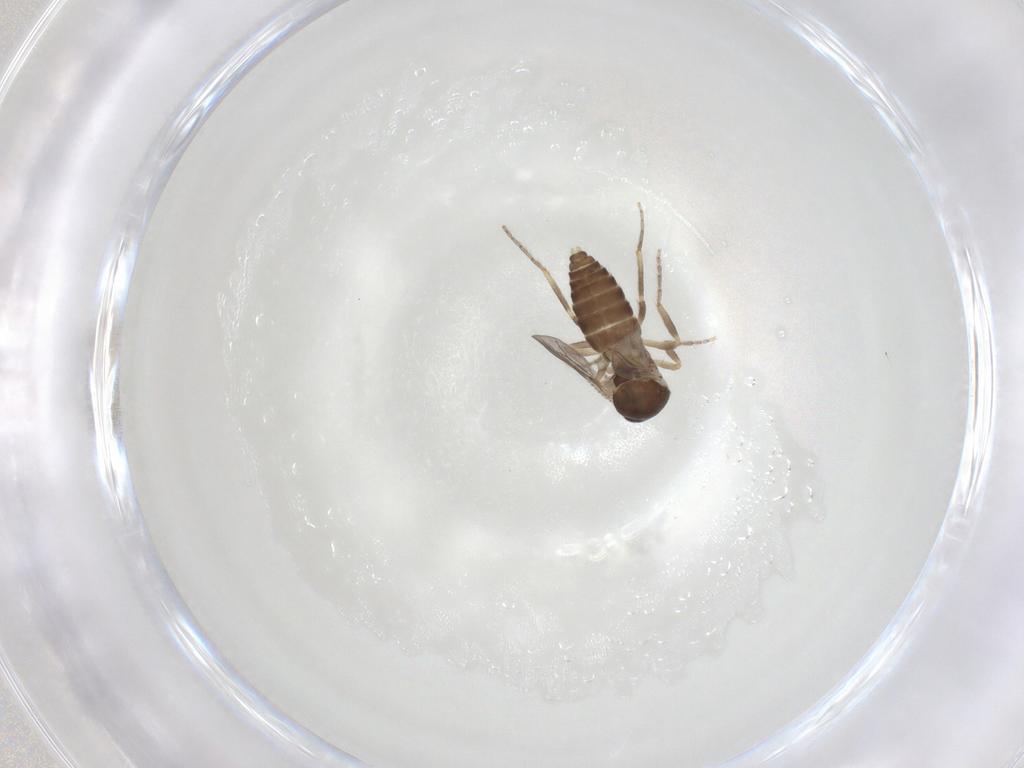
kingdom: Animalia
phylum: Arthropoda
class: Insecta
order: Diptera
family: Ceratopogonidae
